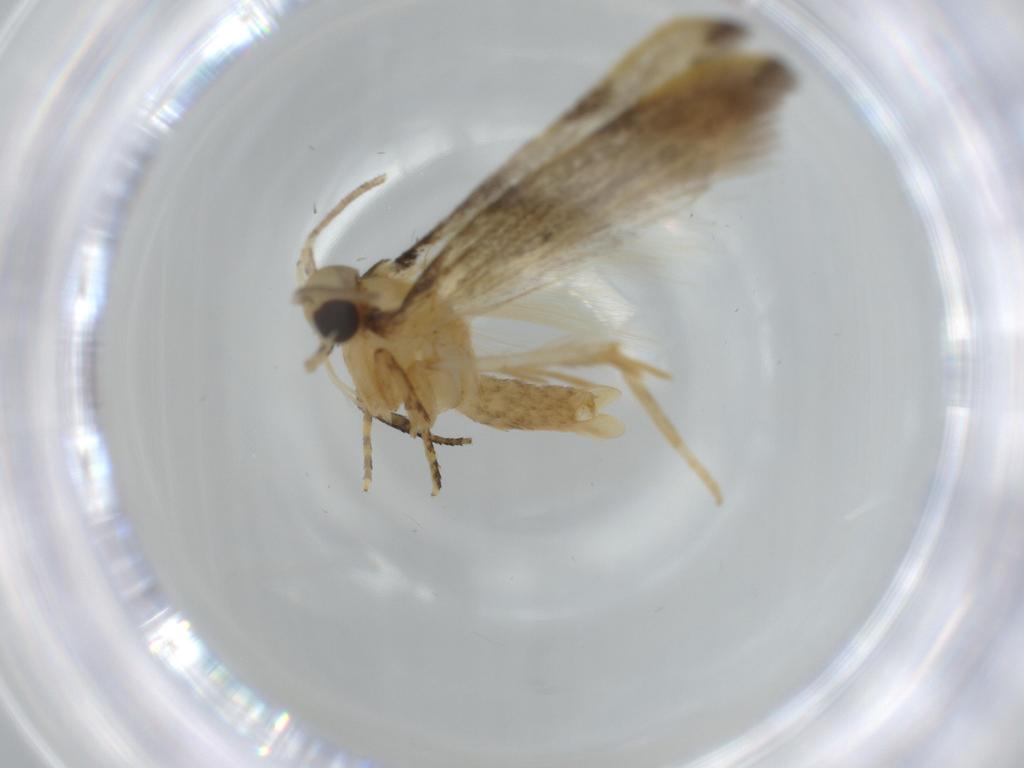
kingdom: Animalia
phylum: Arthropoda
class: Insecta
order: Lepidoptera
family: Autostichidae
